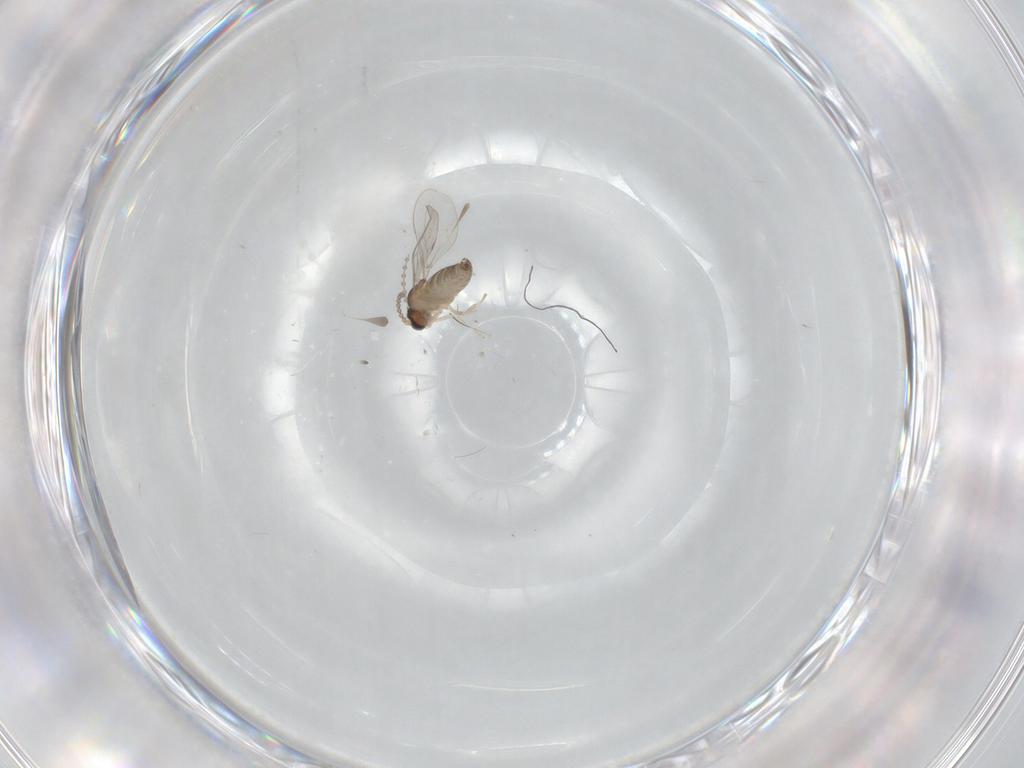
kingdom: Animalia
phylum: Arthropoda
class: Insecta
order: Diptera
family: Cecidomyiidae
